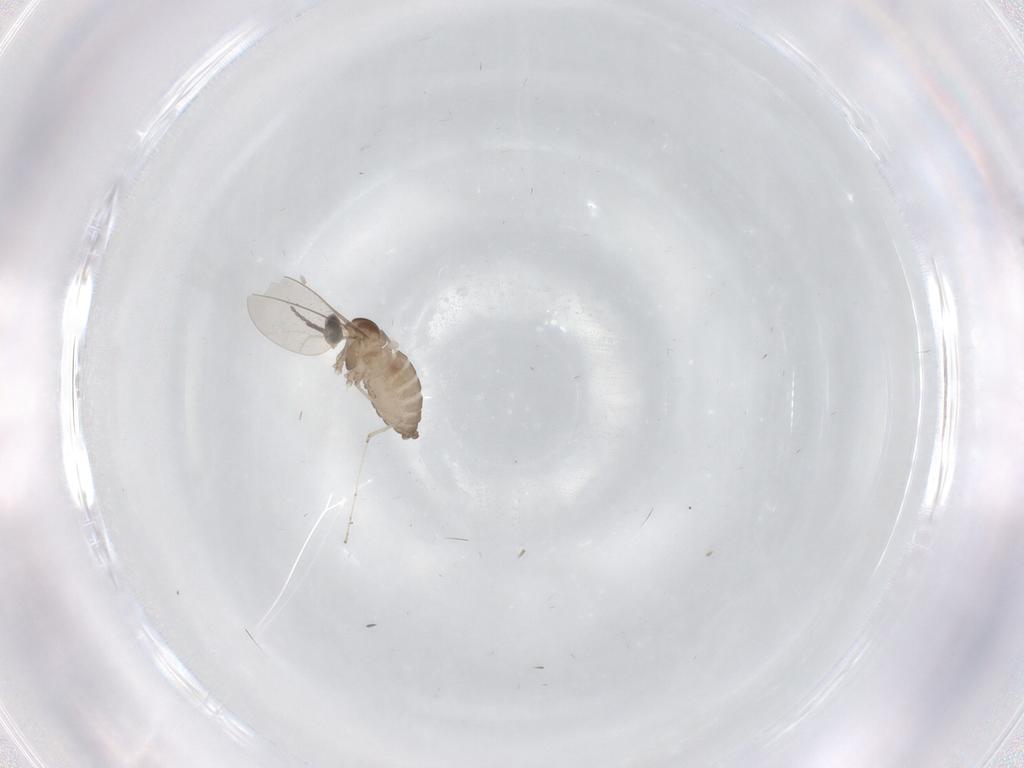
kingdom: Animalia
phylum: Arthropoda
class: Insecta
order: Diptera
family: Cecidomyiidae
